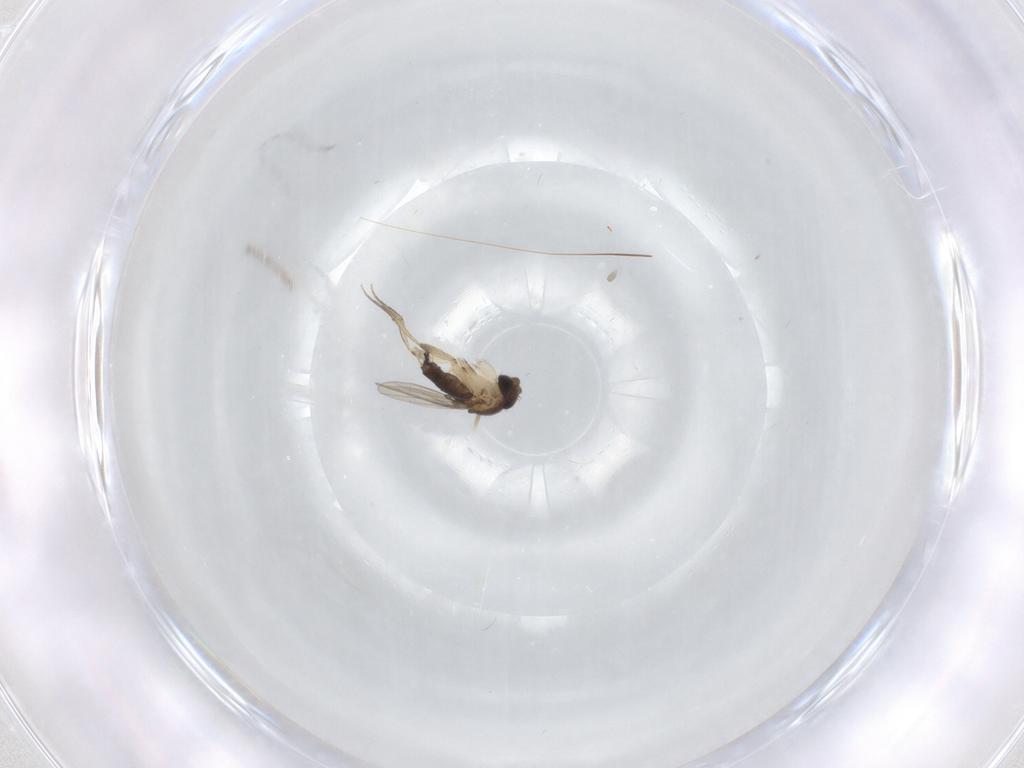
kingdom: Animalia
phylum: Arthropoda
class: Insecta
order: Diptera
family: Phoridae
